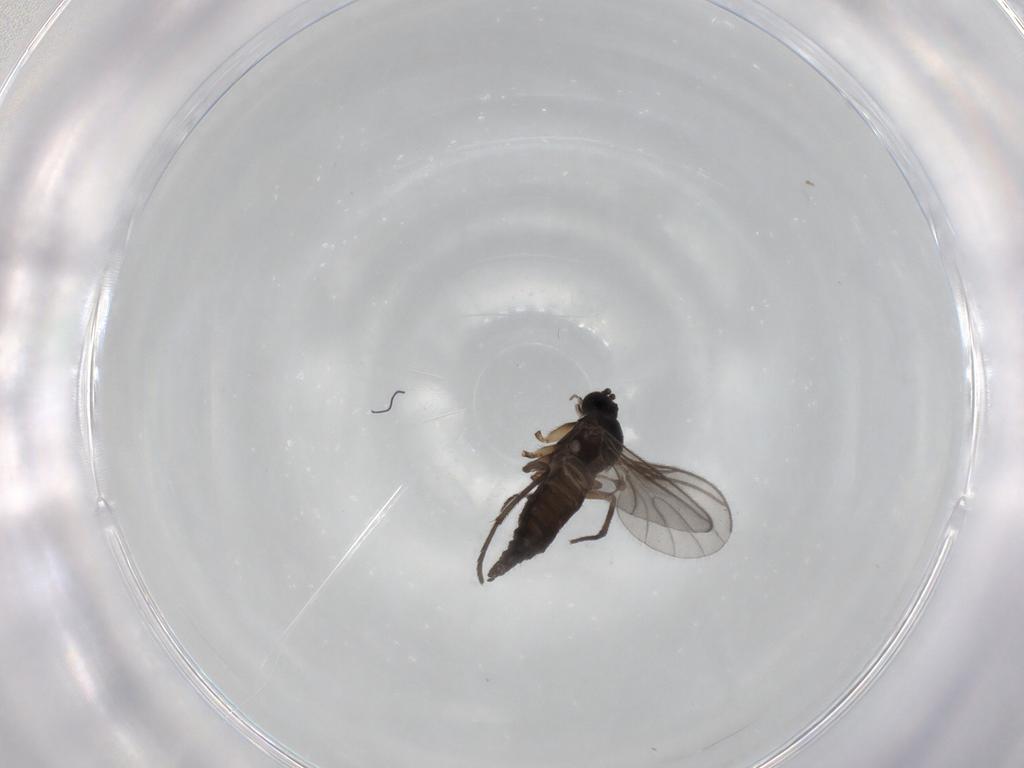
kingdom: Animalia
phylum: Arthropoda
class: Insecta
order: Diptera
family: Sciaridae
